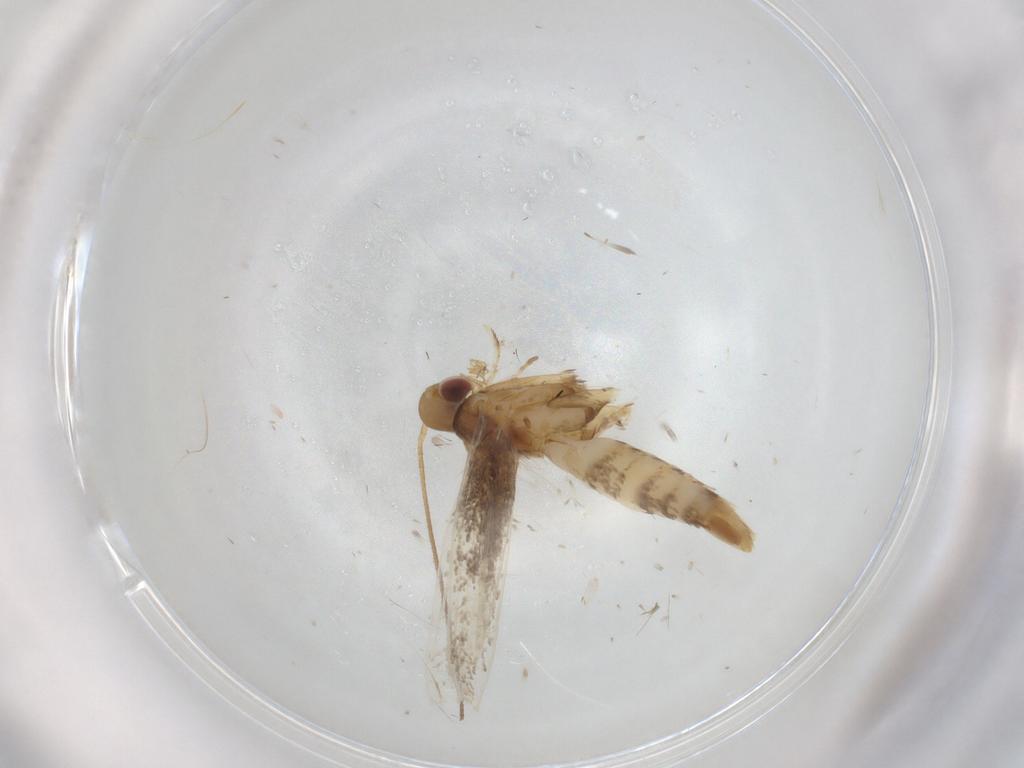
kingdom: Animalia
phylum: Arthropoda
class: Insecta
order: Lepidoptera
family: Gracillariidae
